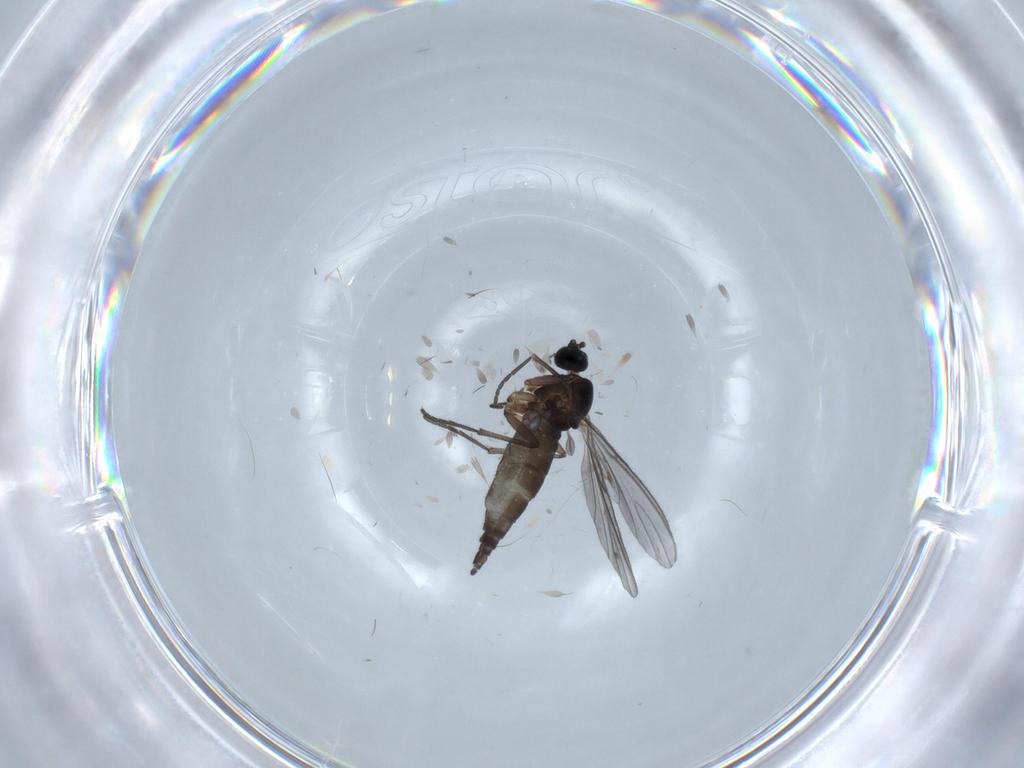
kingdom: Animalia
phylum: Arthropoda
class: Insecta
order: Diptera
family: Sciaridae
